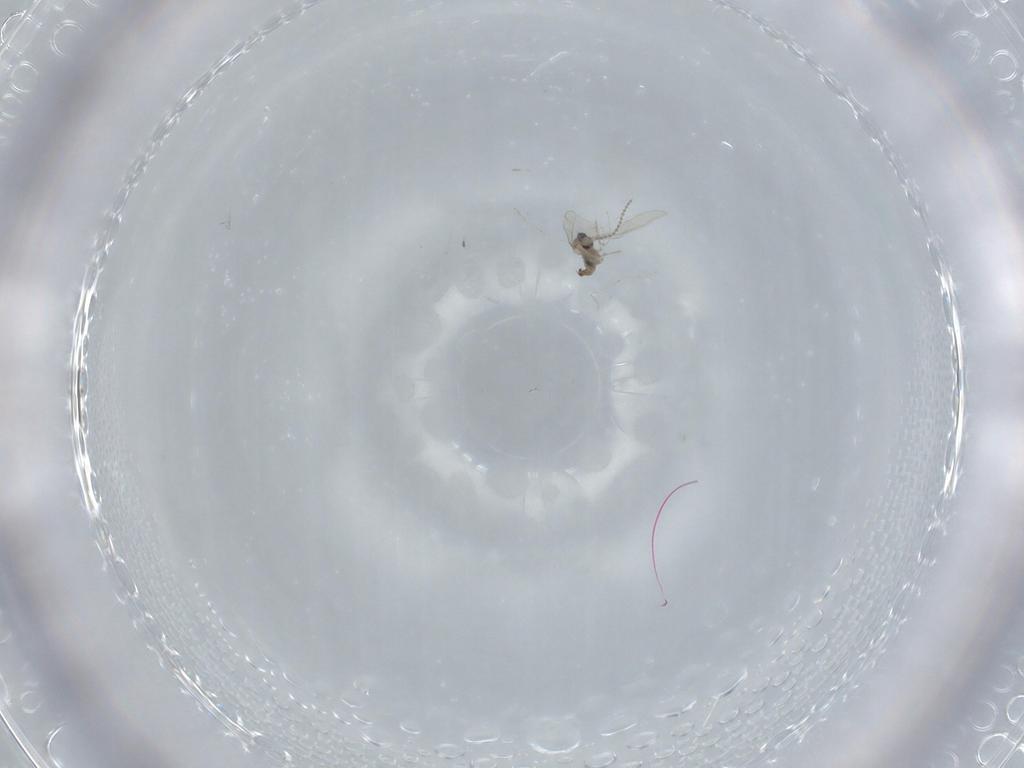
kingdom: Animalia
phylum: Arthropoda
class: Insecta
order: Diptera
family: Cecidomyiidae
